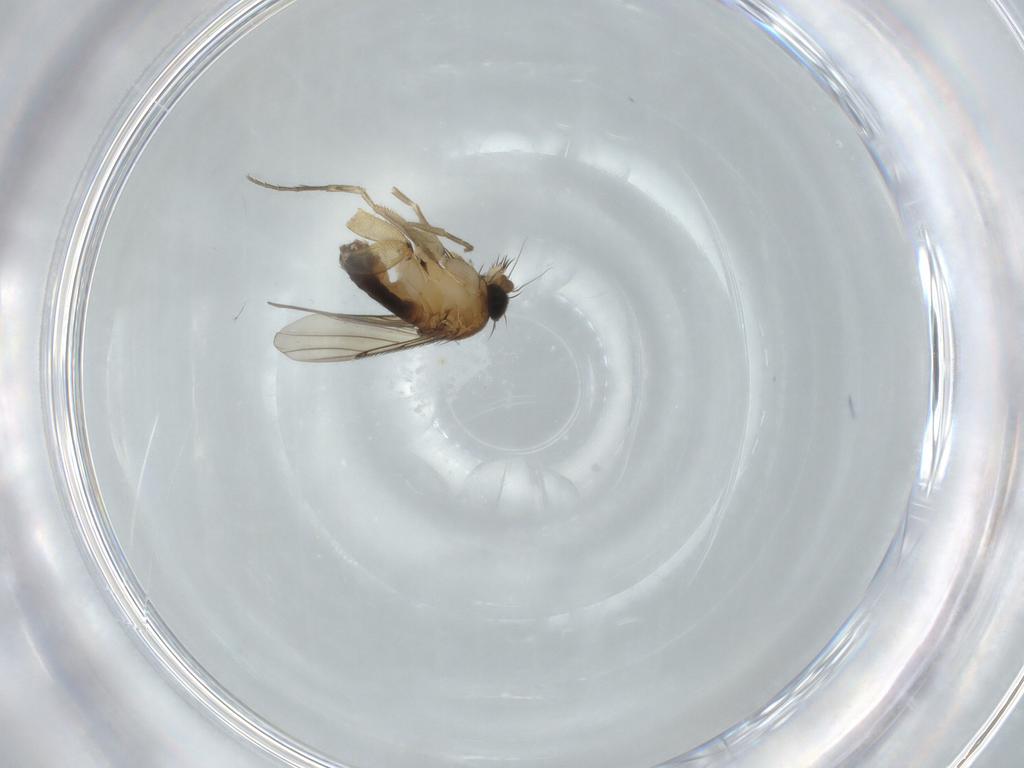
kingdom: Animalia
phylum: Arthropoda
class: Insecta
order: Diptera
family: Phoridae
